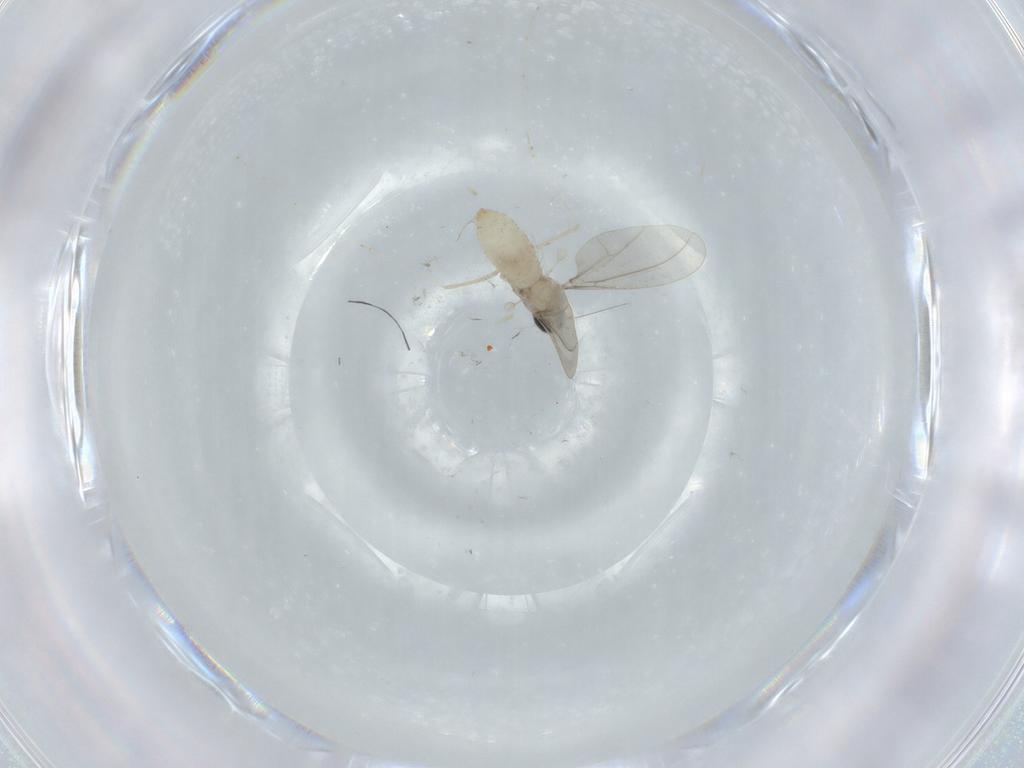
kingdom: Animalia
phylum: Arthropoda
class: Insecta
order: Diptera
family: Cecidomyiidae
